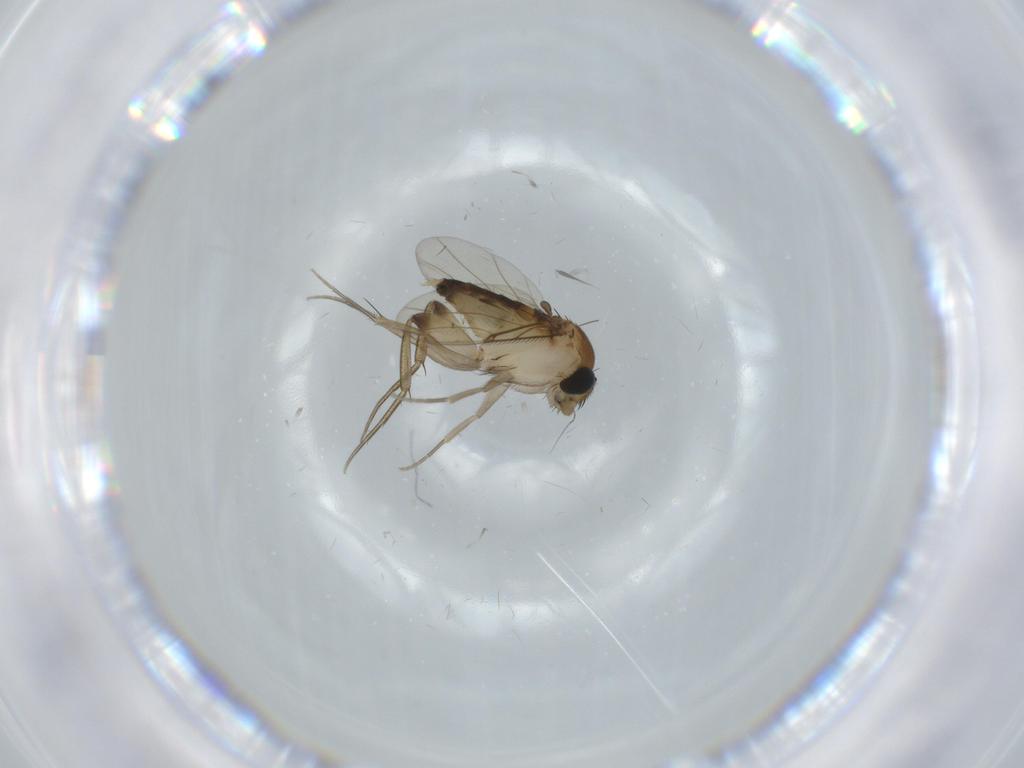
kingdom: Animalia
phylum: Arthropoda
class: Insecta
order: Diptera
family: Phoridae
